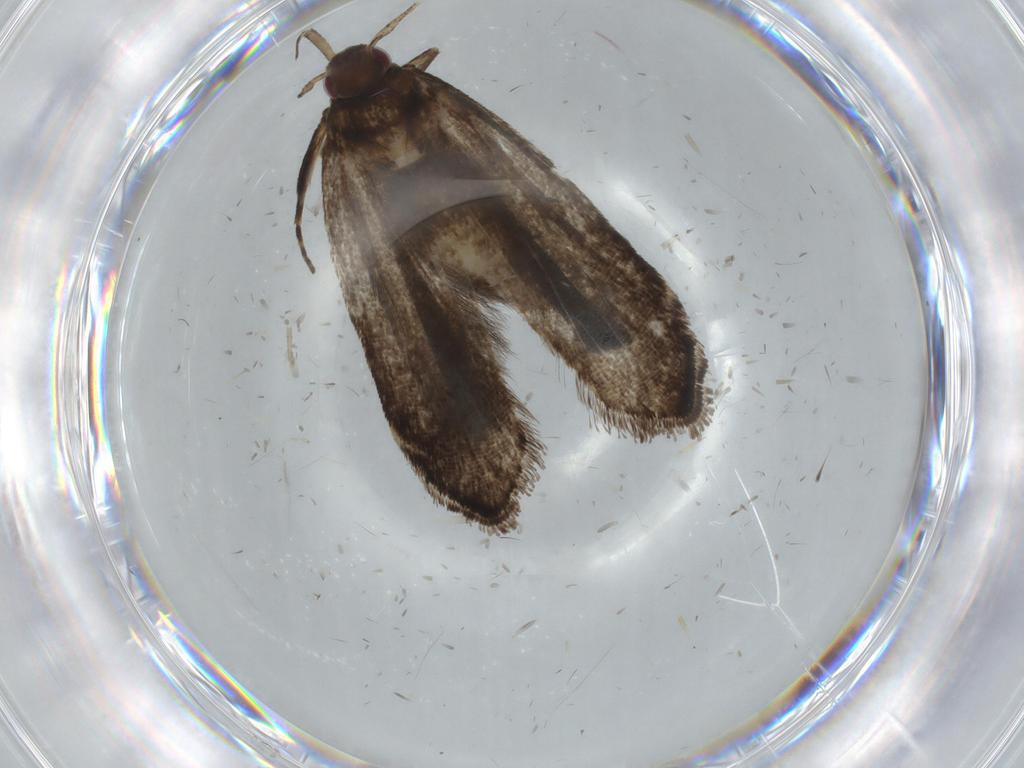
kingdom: Animalia
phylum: Arthropoda
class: Insecta
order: Lepidoptera
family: Gelechiidae
